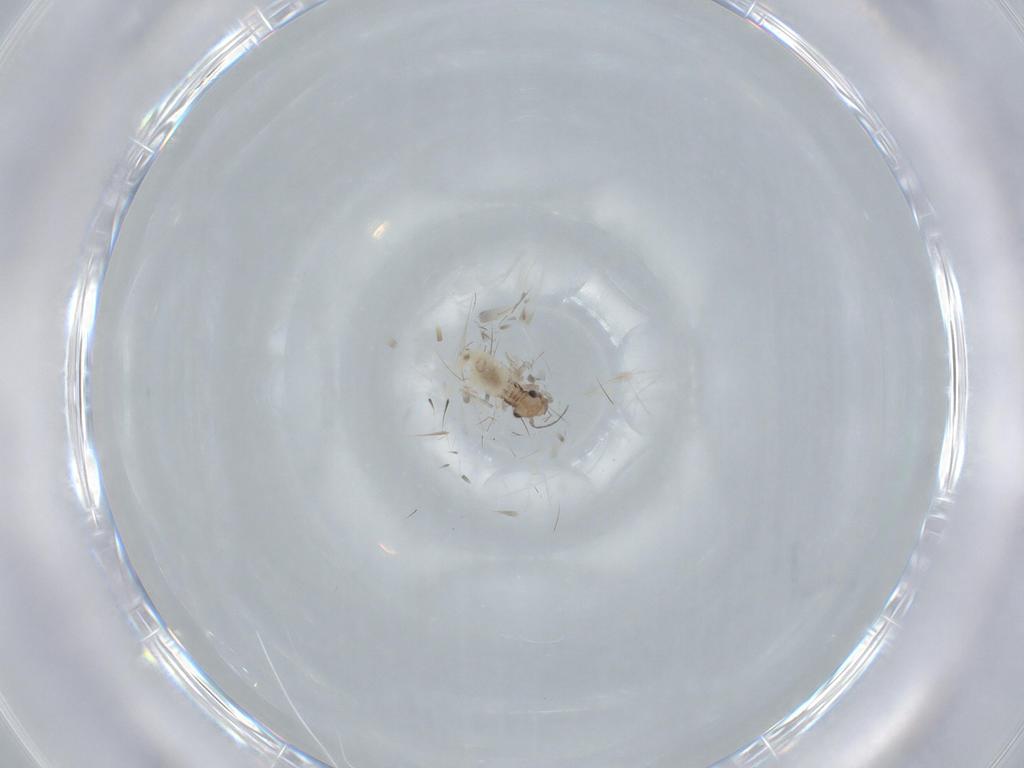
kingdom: Animalia
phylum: Arthropoda
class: Insecta
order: Psocodea
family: Lepidopsocidae
